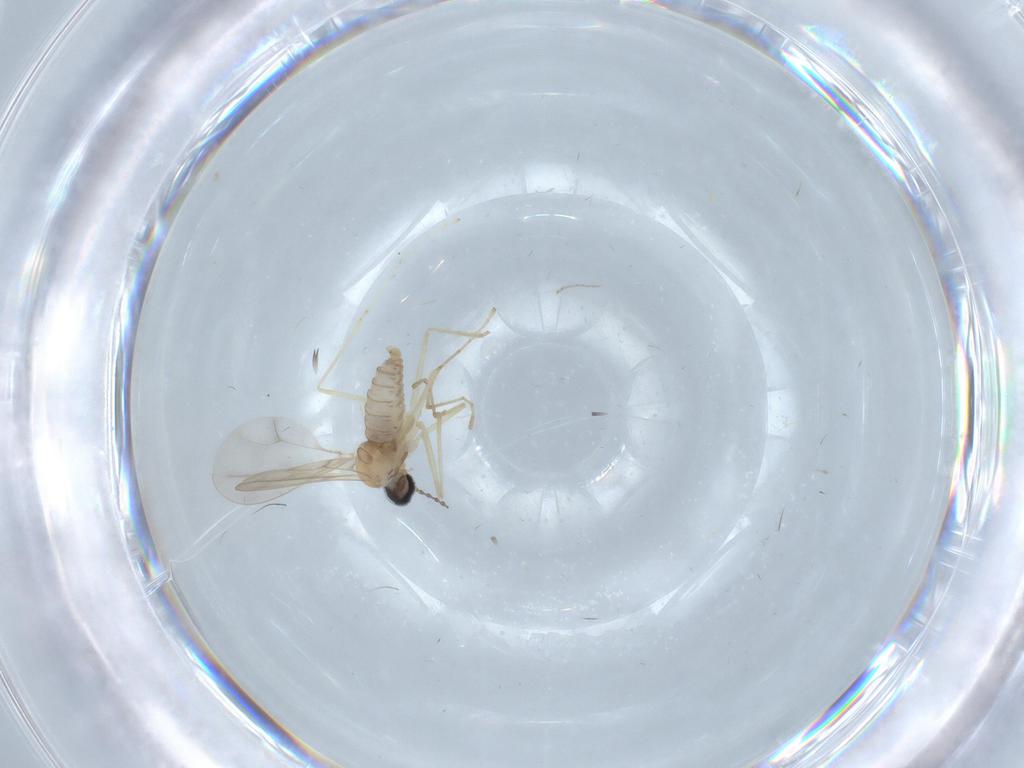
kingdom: Animalia
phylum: Arthropoda
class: Insecta
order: Diptera
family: Cecidomyiidae
